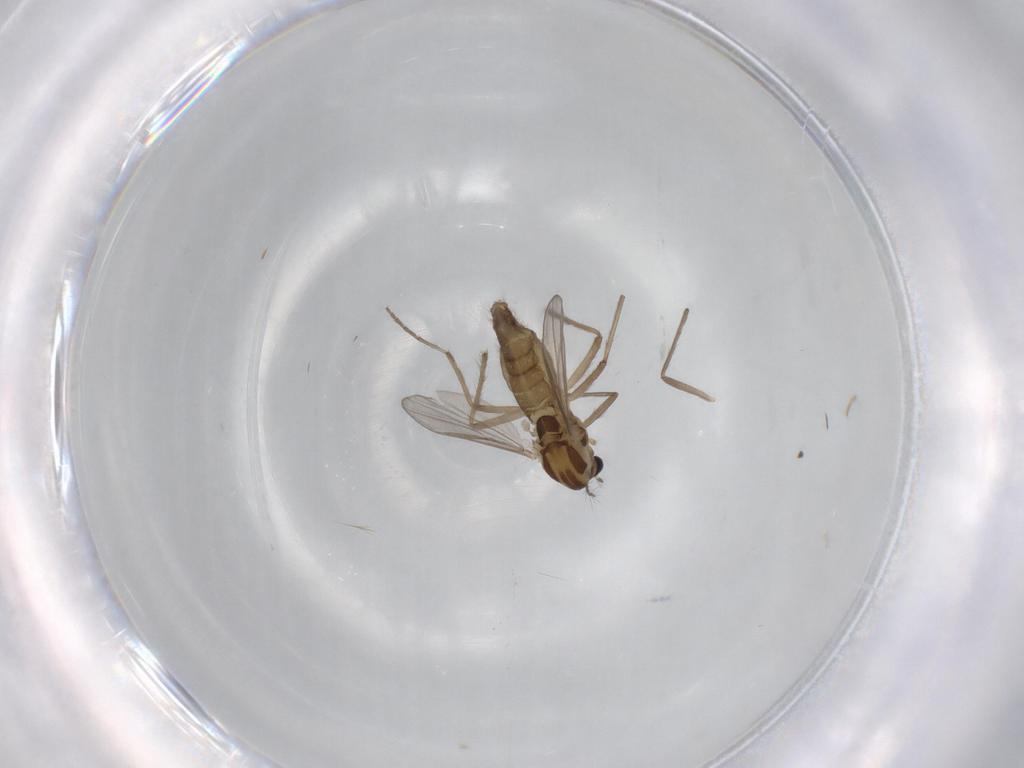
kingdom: Animalia
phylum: Arthropoda
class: Insecta
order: Diptera
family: Chironomidae
